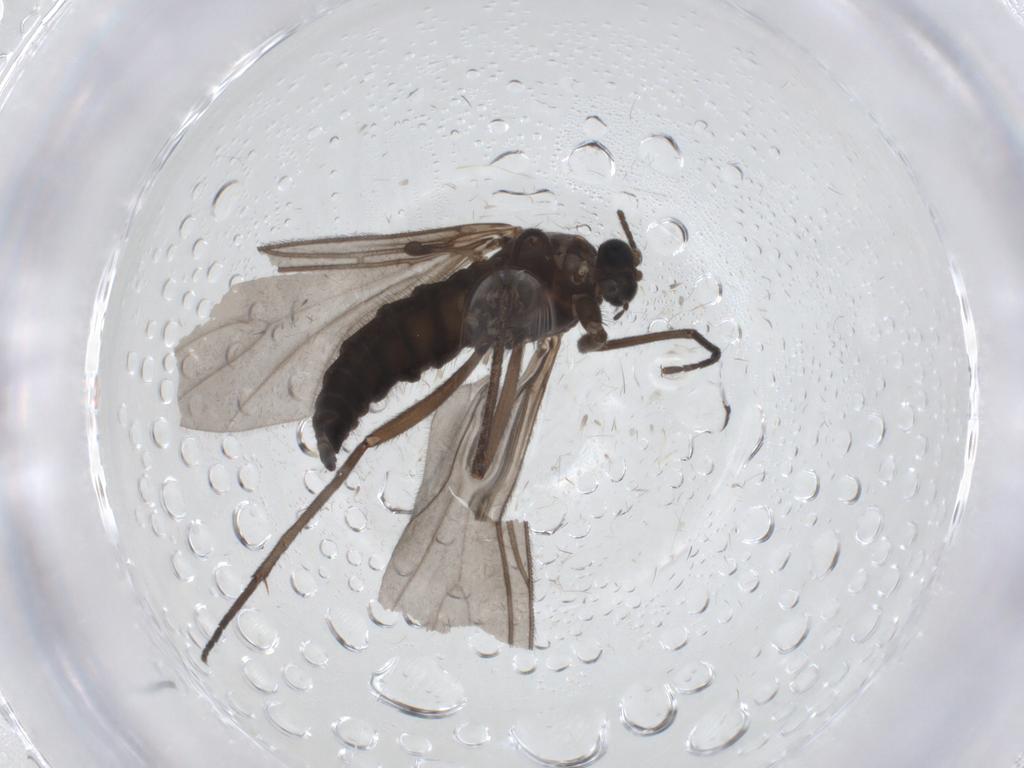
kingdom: Animalia
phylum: Arthropoda
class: Insecta
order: Diptera
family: Sciaridae
